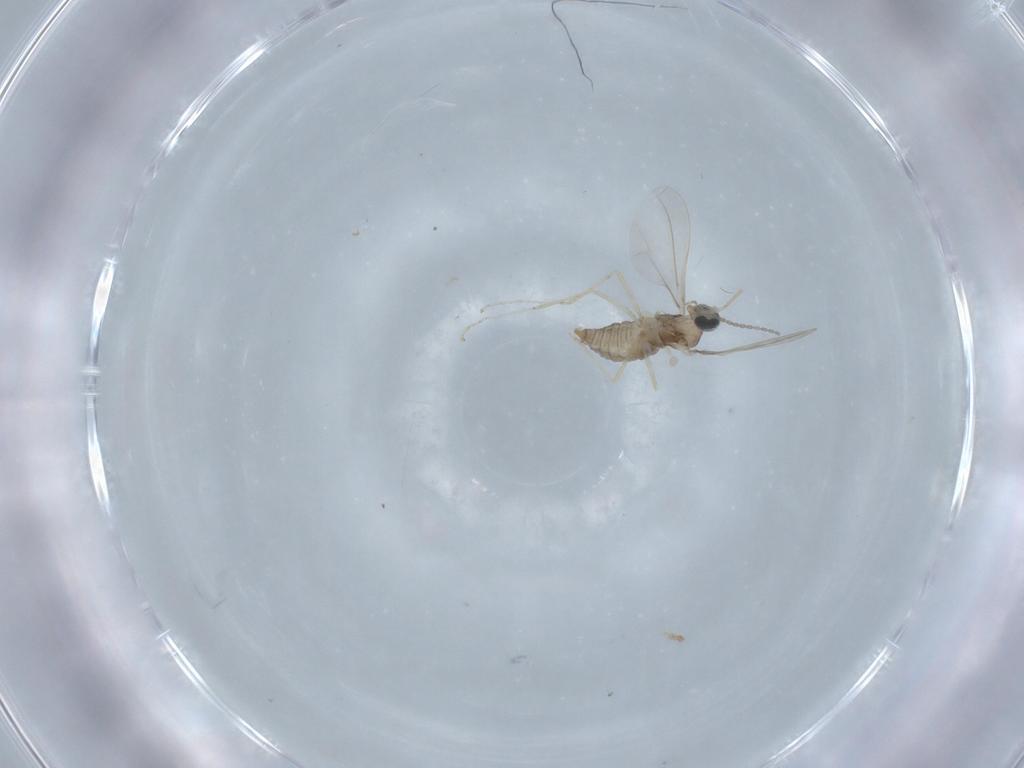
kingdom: Animalia
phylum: Arthropoda
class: Insecta
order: Diptera
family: Cecidomyiidae
